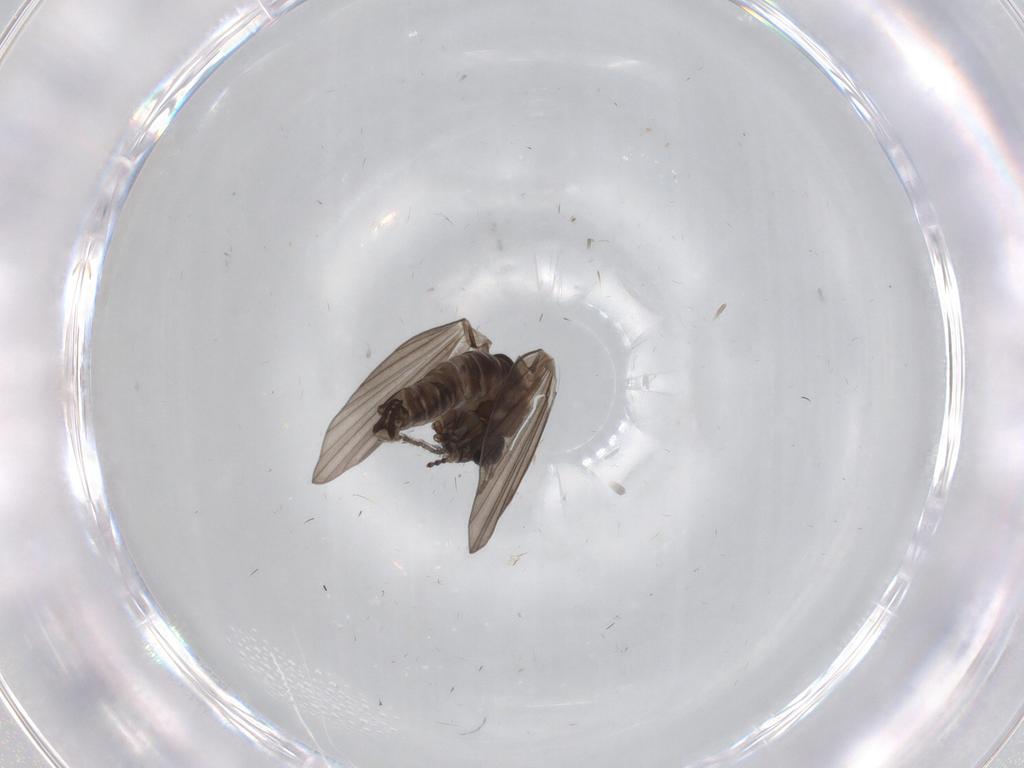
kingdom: Animalia
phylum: Arthropoda
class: Insecta
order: Diptera
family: Psychodidae
